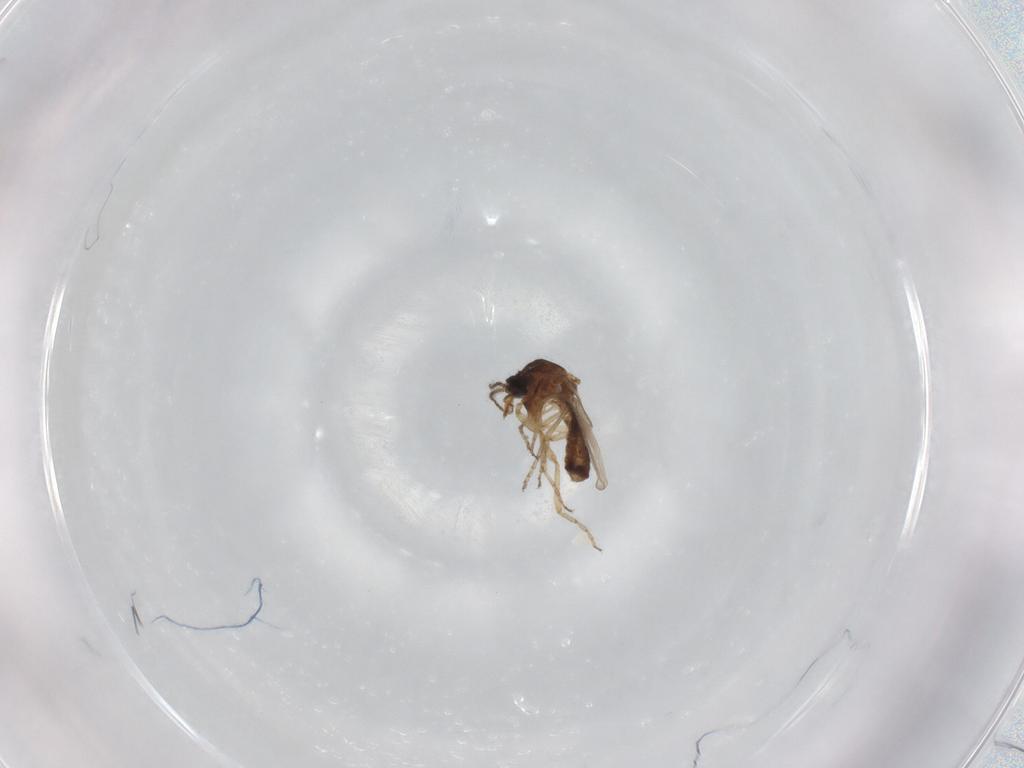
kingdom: Animalia
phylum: Arthropoda
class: Insecta
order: Diptera
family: Ceratopogonidae
